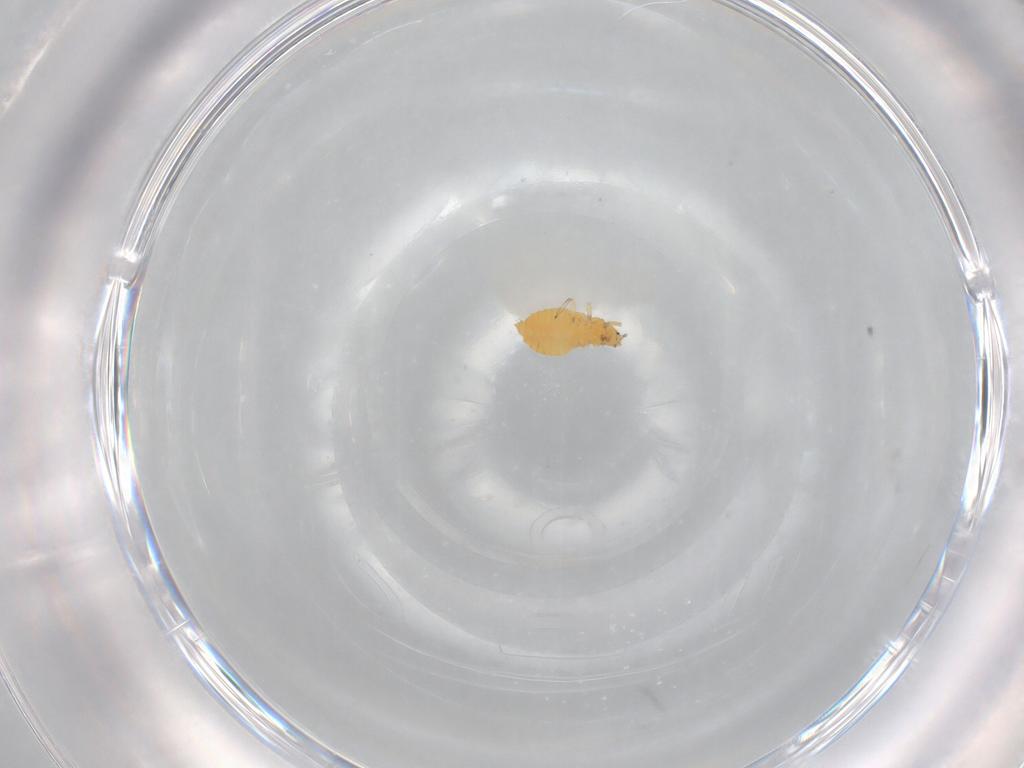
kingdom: Animalia
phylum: Arthropoda
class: Insecta
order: Thysanoptera
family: Aeolothripidae
